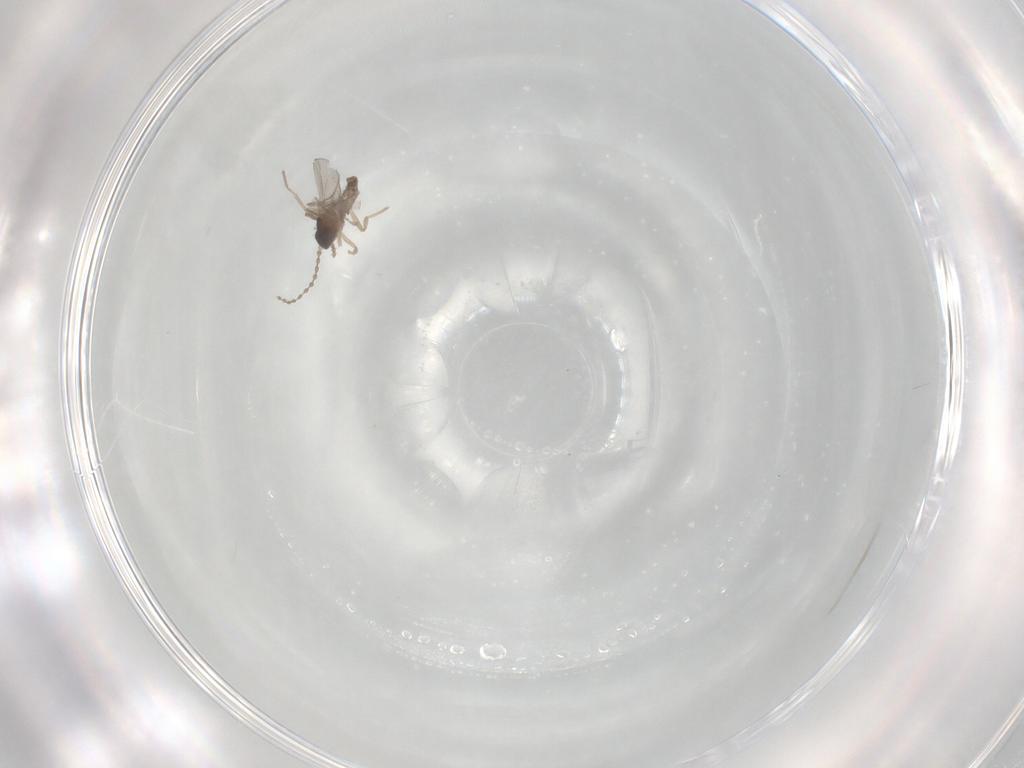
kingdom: Animalia
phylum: Arthropoda
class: Insecta
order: Diptera
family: Cecidomyiidae
